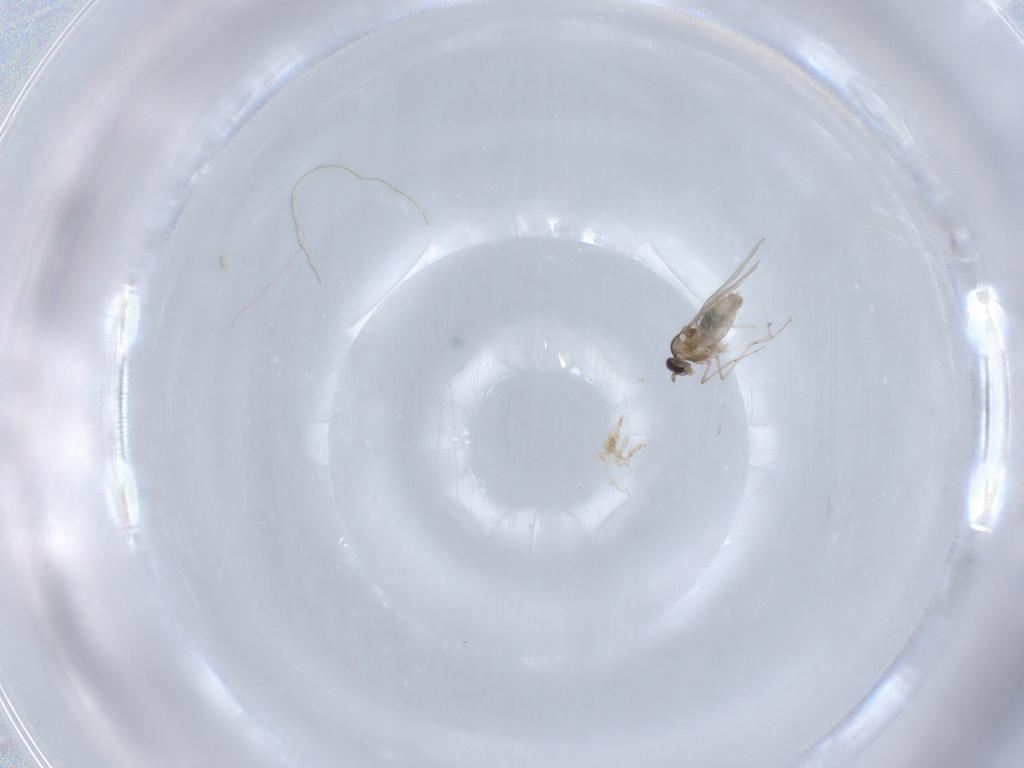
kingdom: Animalia
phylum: Arthropoda
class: Insecta
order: Diptera
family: Cecidomyiidae
